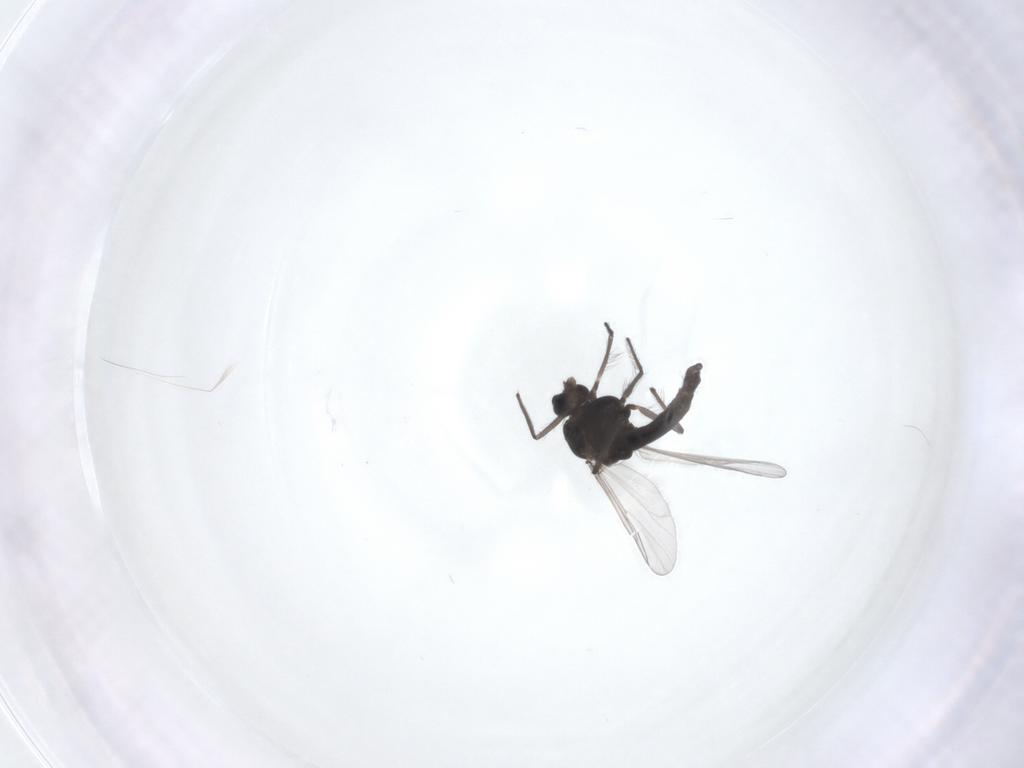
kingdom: Animalia
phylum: Arthropoda
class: Insecta
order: Diptera
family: Chironomidae
